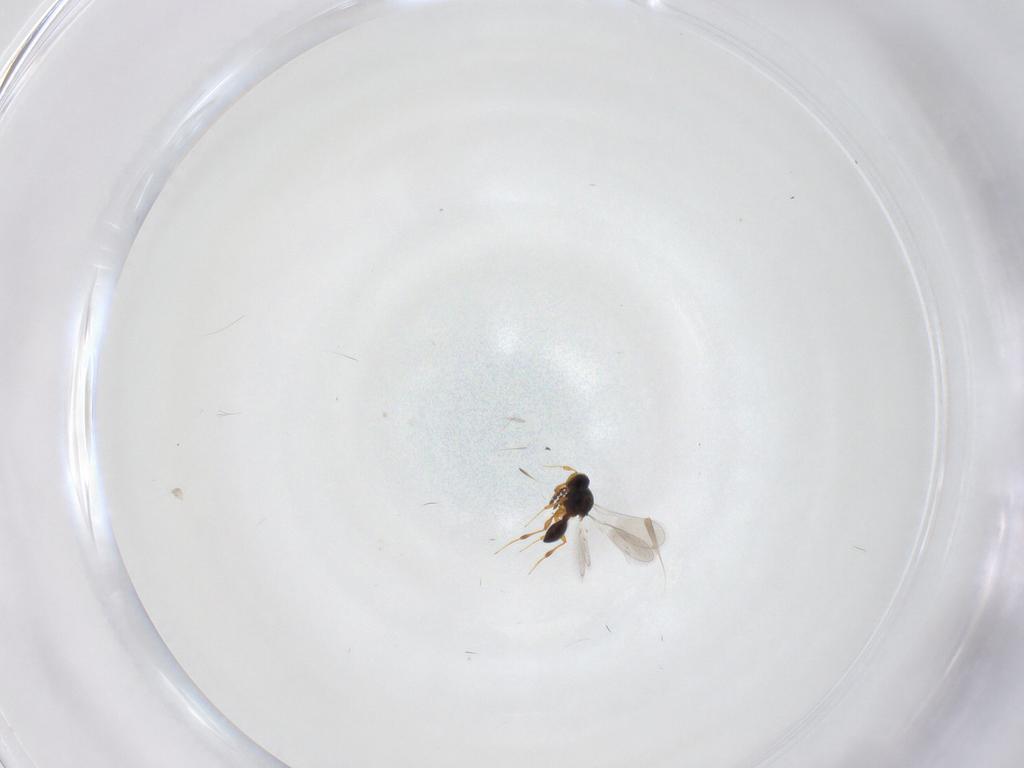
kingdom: Animalia
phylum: Arthropoda
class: Insecta
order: Hymenoptera
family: Platygastridae
